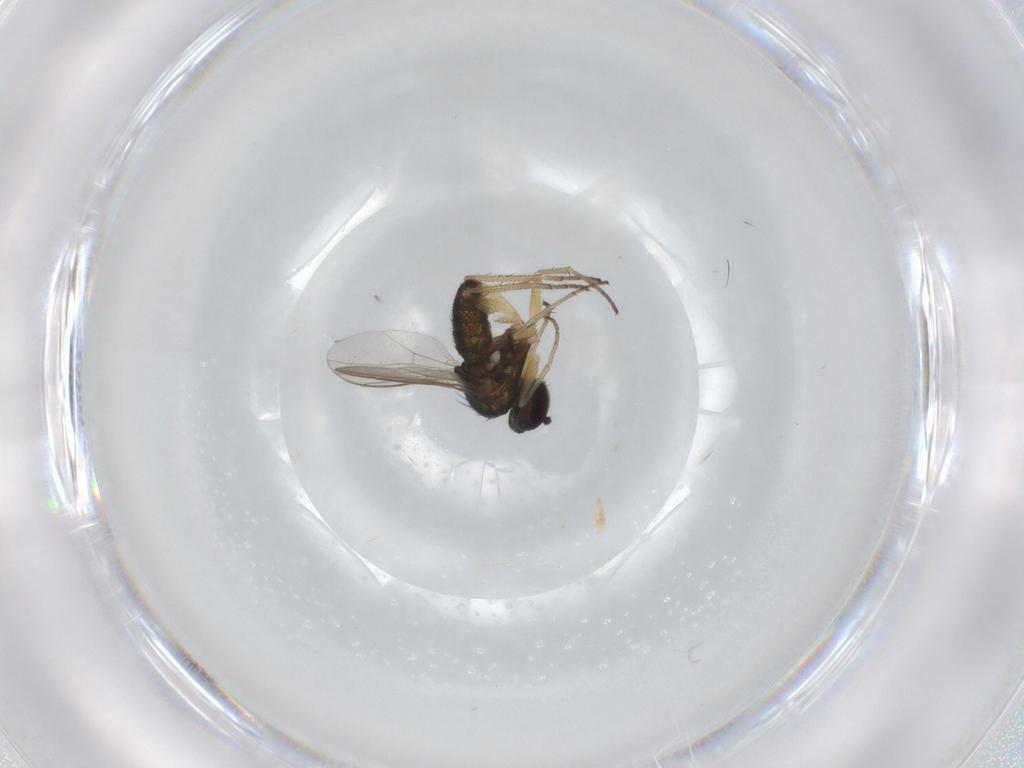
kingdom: Animalia
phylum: Arthropoda
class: Insecta
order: Diptera
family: Dolichopodidae
